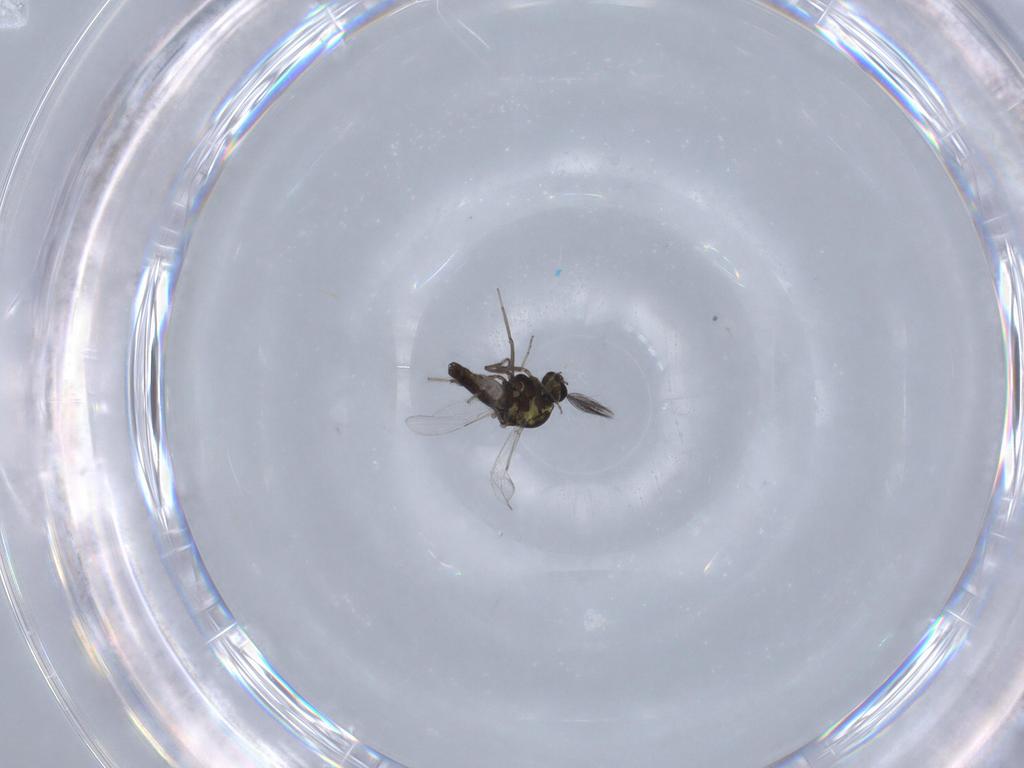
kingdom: Animalia
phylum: Arthropoda
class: Insecta
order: Diptera
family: Ceratopogonidae
